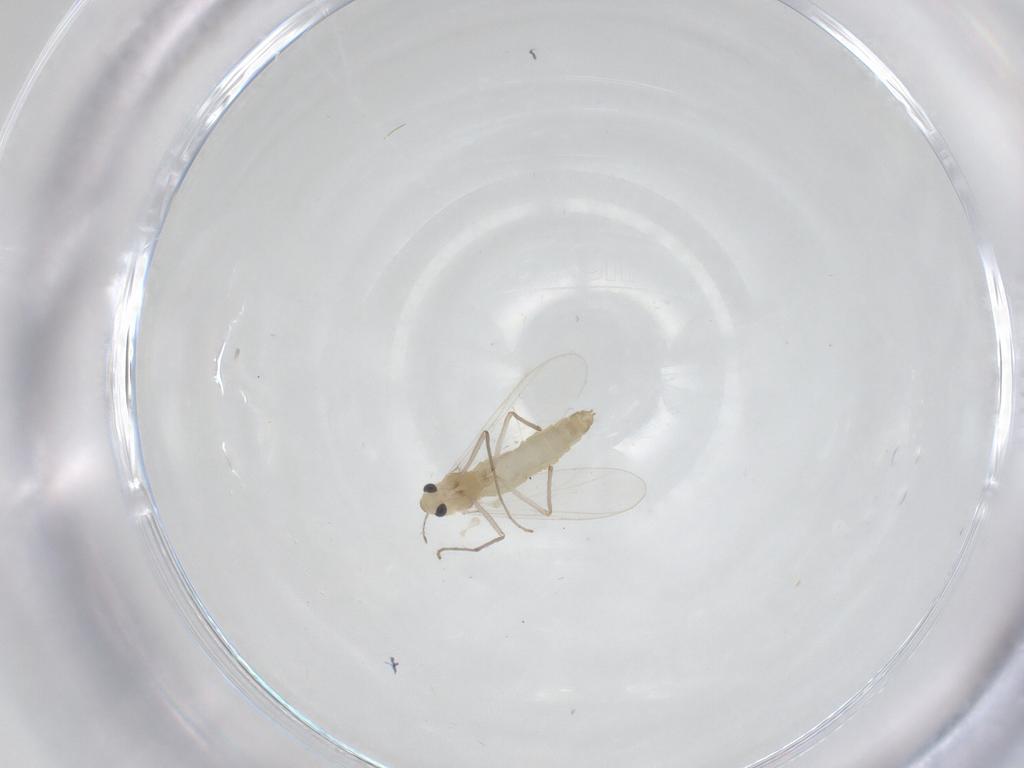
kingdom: Animalia
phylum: Arthropoda
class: Insecta
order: Diptera
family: Chironomidae
